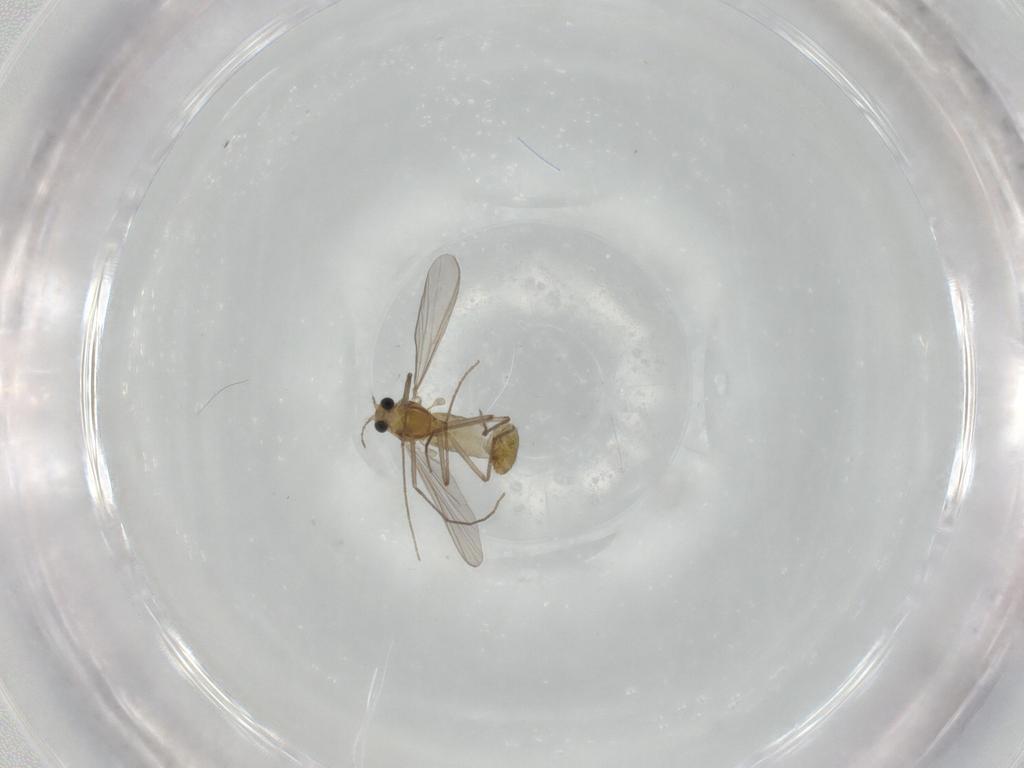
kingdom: Animalia
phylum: Arthropoda
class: Insecta
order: Diptera
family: Chironomidae
